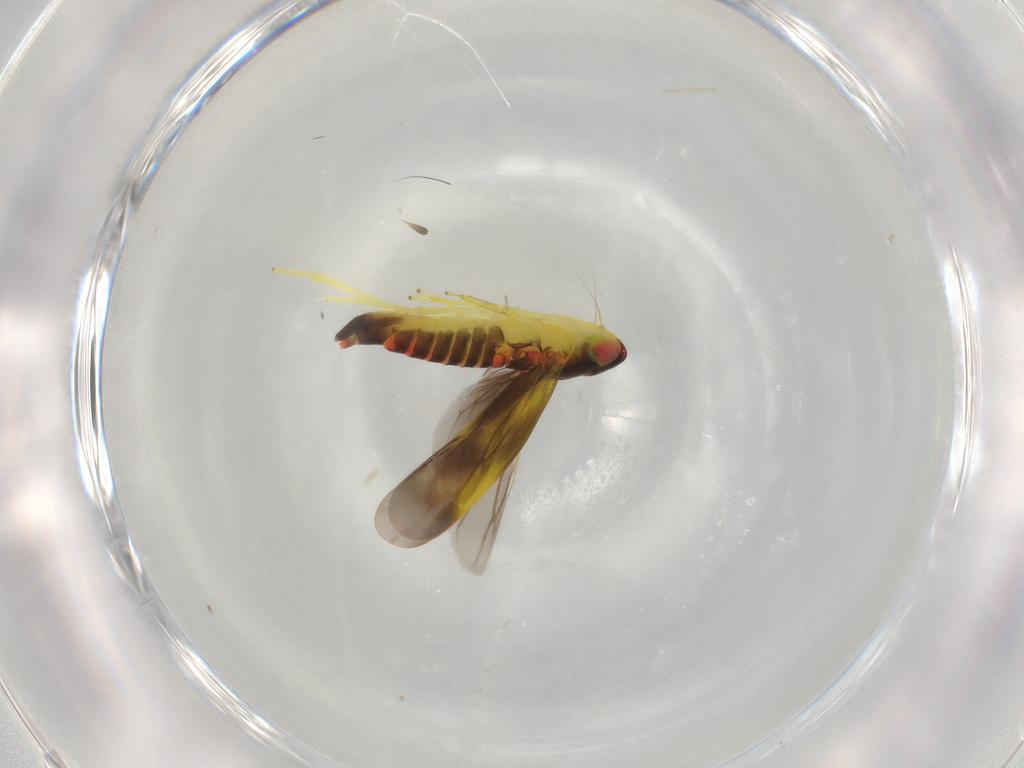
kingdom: Animalia
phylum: Arthropoda
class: Insecta
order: Hemiptera
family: Cicadellidae
